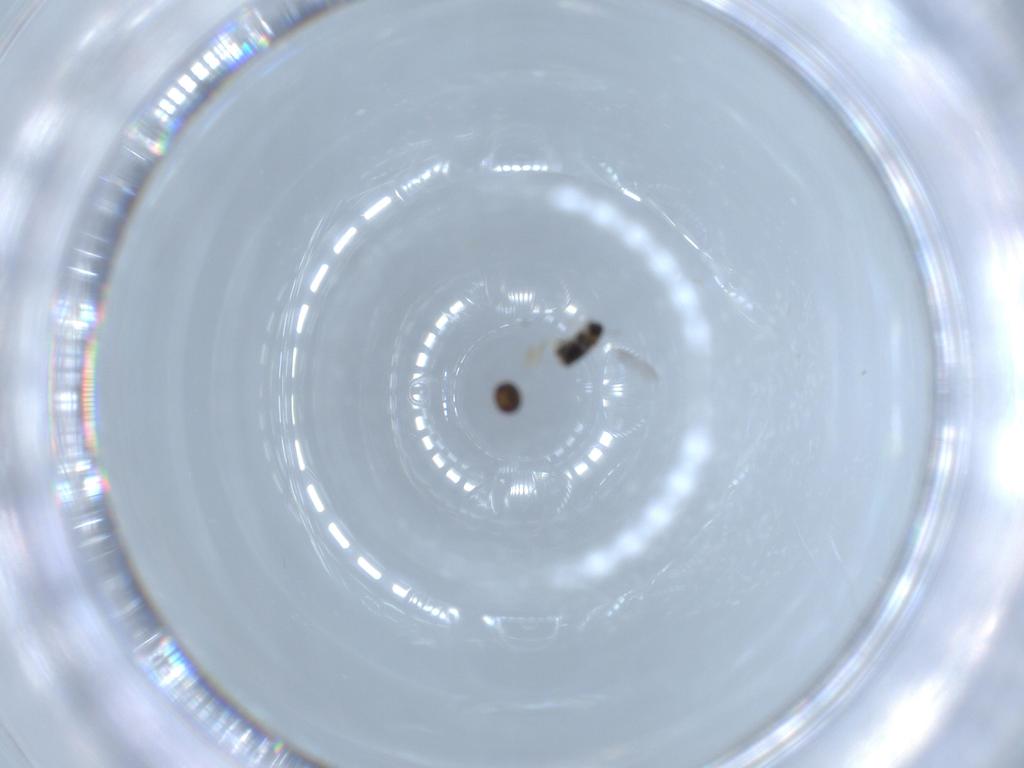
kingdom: Animalia
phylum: Arthropoda
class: Insecta
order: Hymenoptera
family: Aphelinidae
